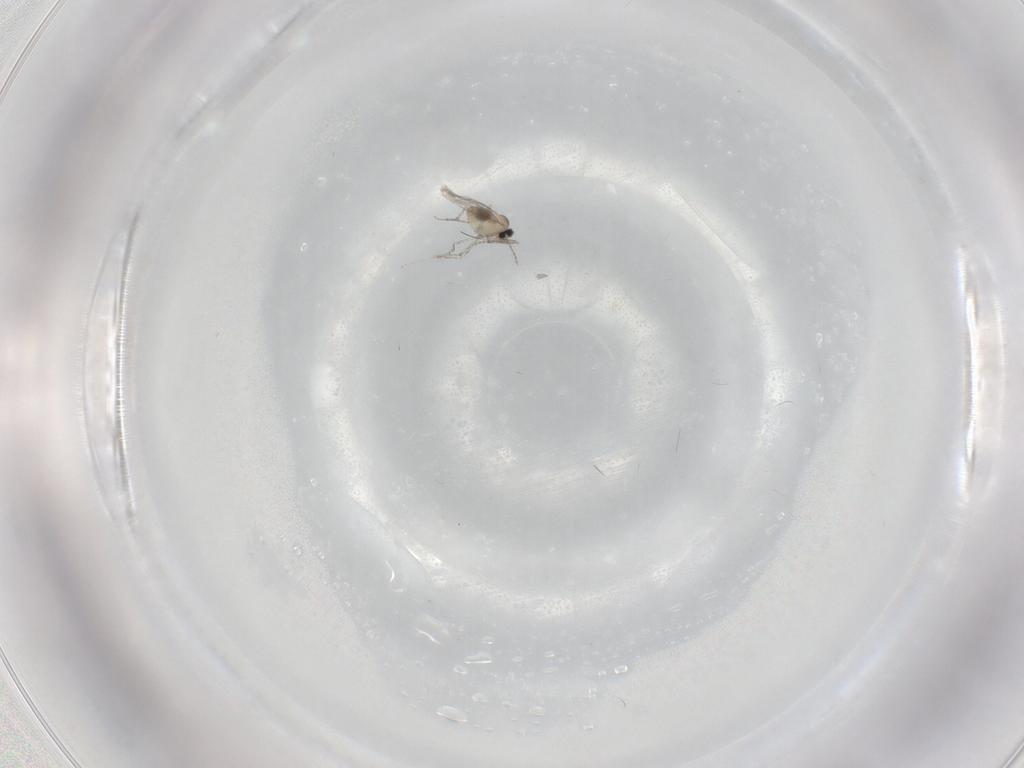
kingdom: Animalia
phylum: Arthropoda
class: Insecta
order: Diptera
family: Cecidomyiidae
